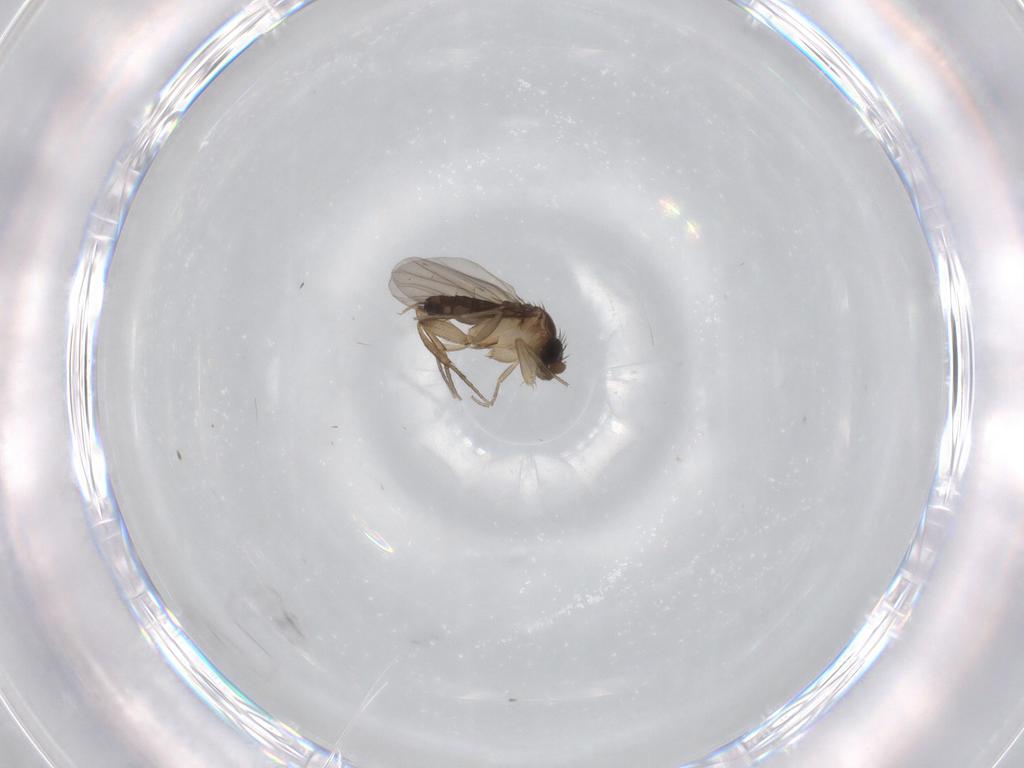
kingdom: Animalia
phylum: Arthropoda
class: Insecta
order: Diptera
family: Phoridae
